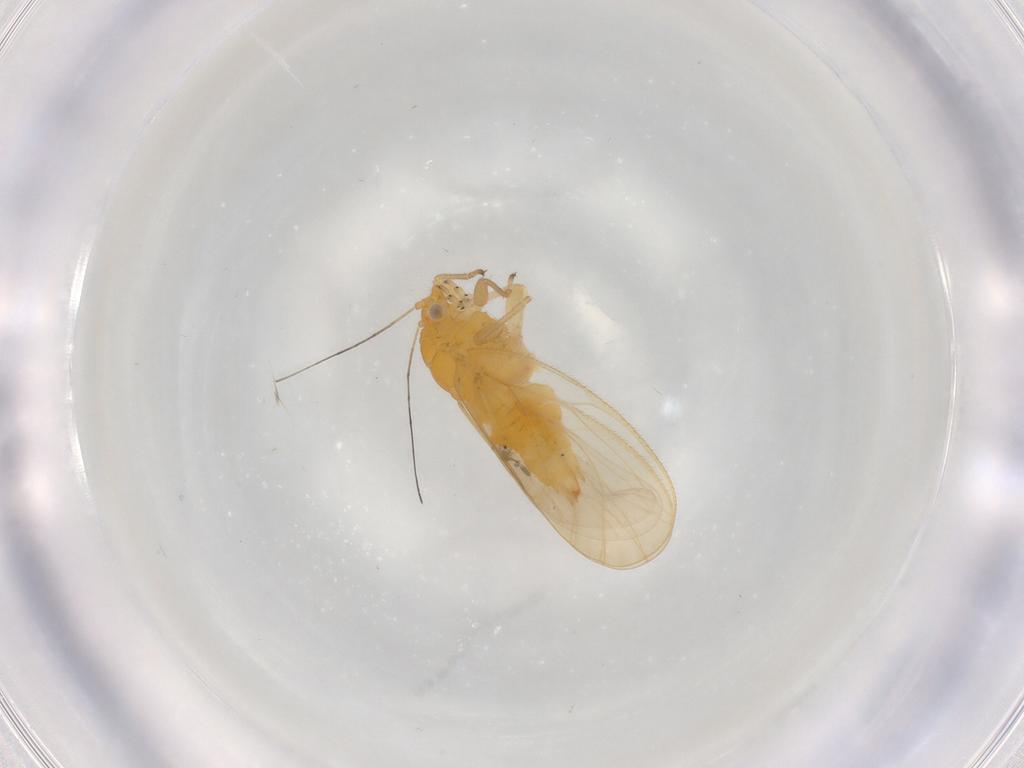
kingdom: Animalia
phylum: Arthropoda
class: Insecta
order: Hemiptera
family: Psyllidae
